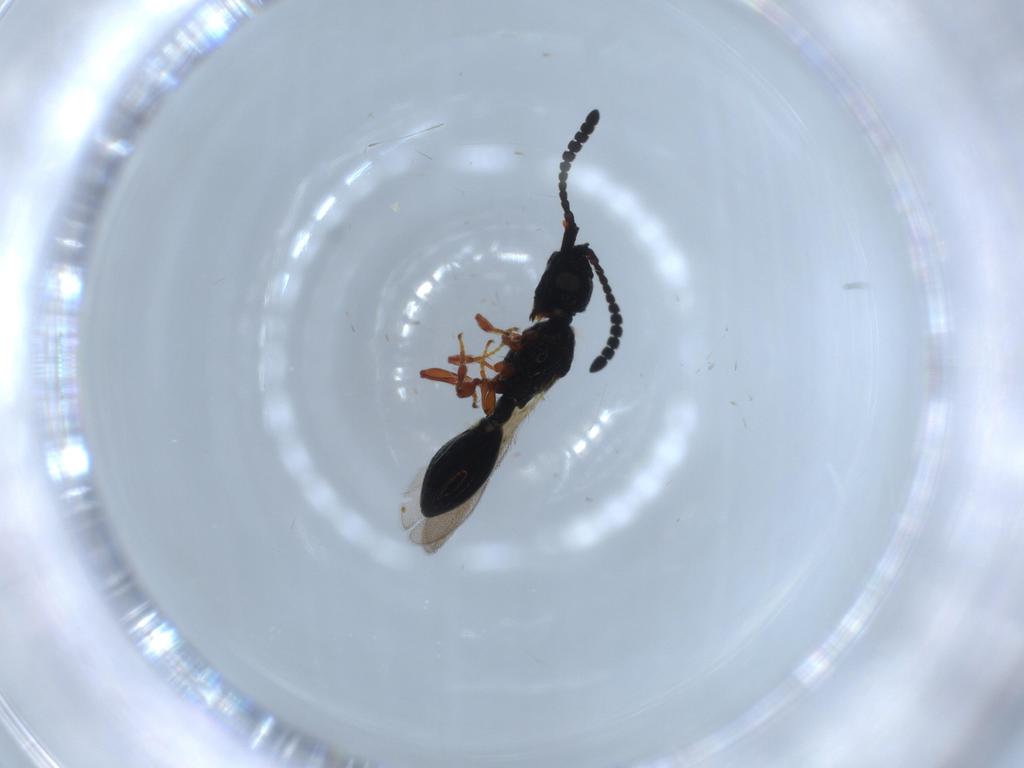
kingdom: Animalia
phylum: Arthropoda
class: Insecta
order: Hymenoptera
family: Diapriidae
